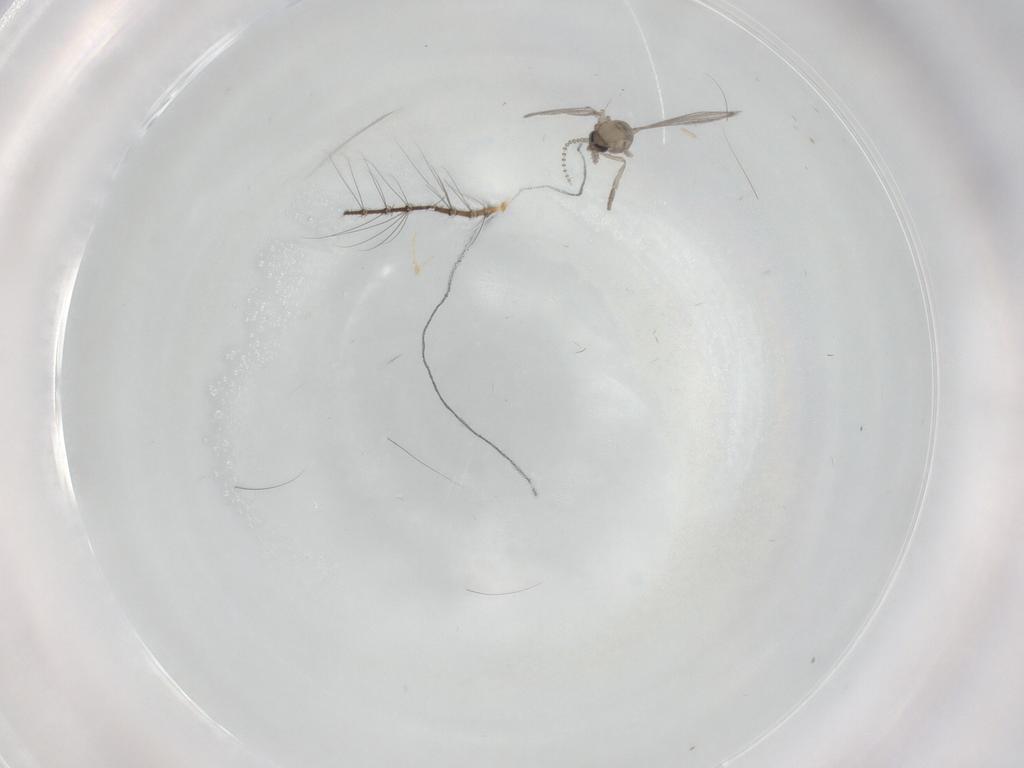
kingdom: Animalia
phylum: Arthropoda
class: Insecta
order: Diptera
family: Psychodidae
